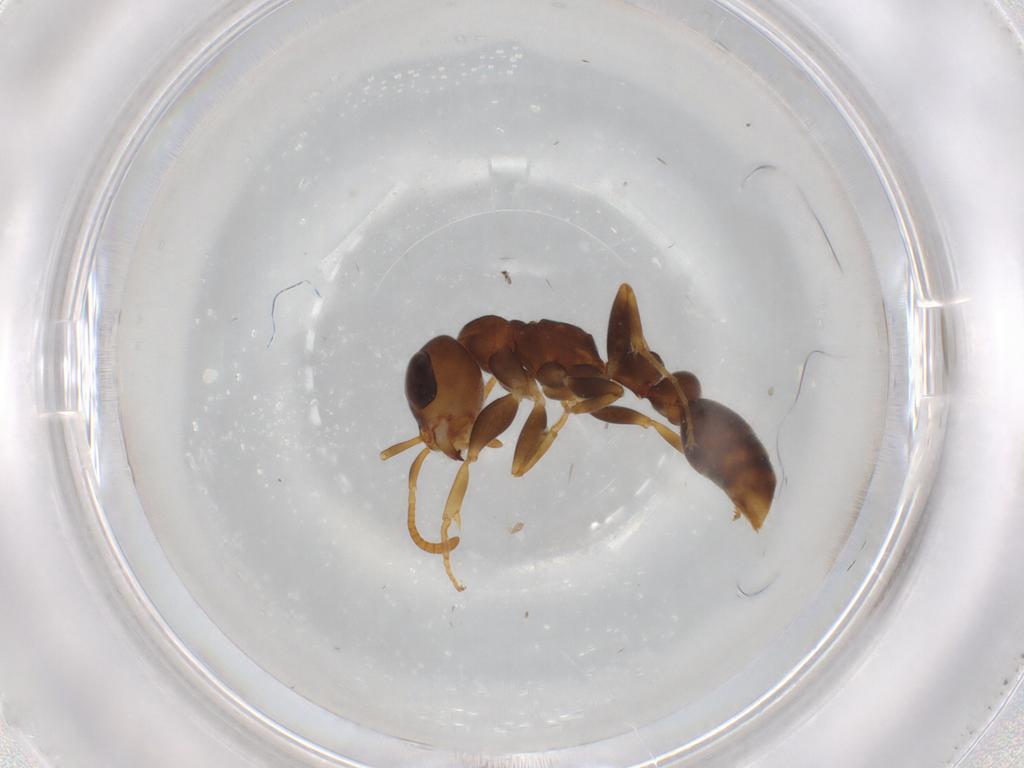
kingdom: Animalia
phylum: Arthropoda
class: Insecta
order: Hymenoptera
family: Formicidae
